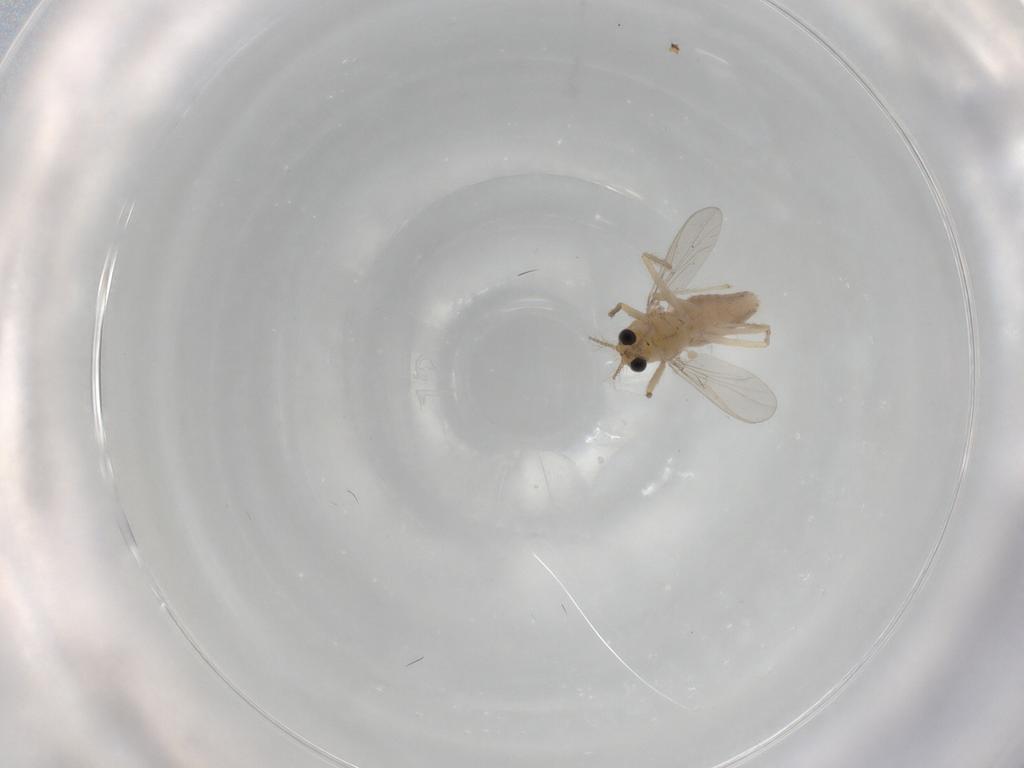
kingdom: Animalia
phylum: Arthropoda
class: Insecta
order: Diptera
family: Chironomidae
